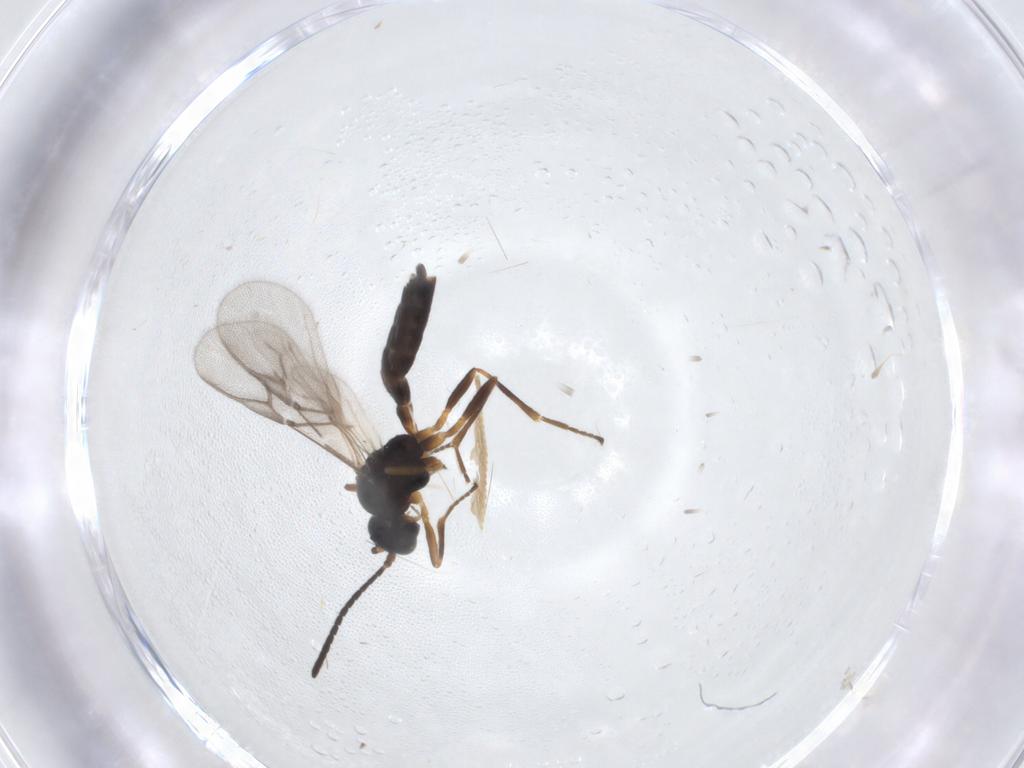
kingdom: Animalia
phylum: Arthropoda
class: Insecta
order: Hymenoptera
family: Braconidae
